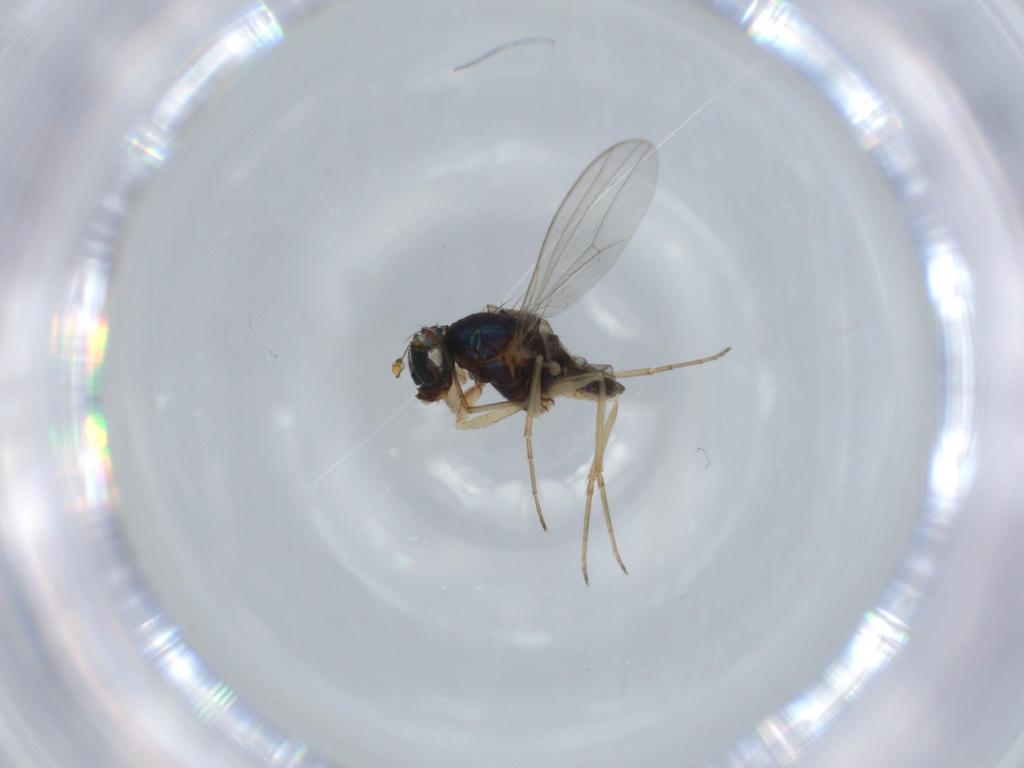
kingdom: Animalia
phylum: Arthropoda
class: Insecta
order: Diptera
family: Dolichopodidae
